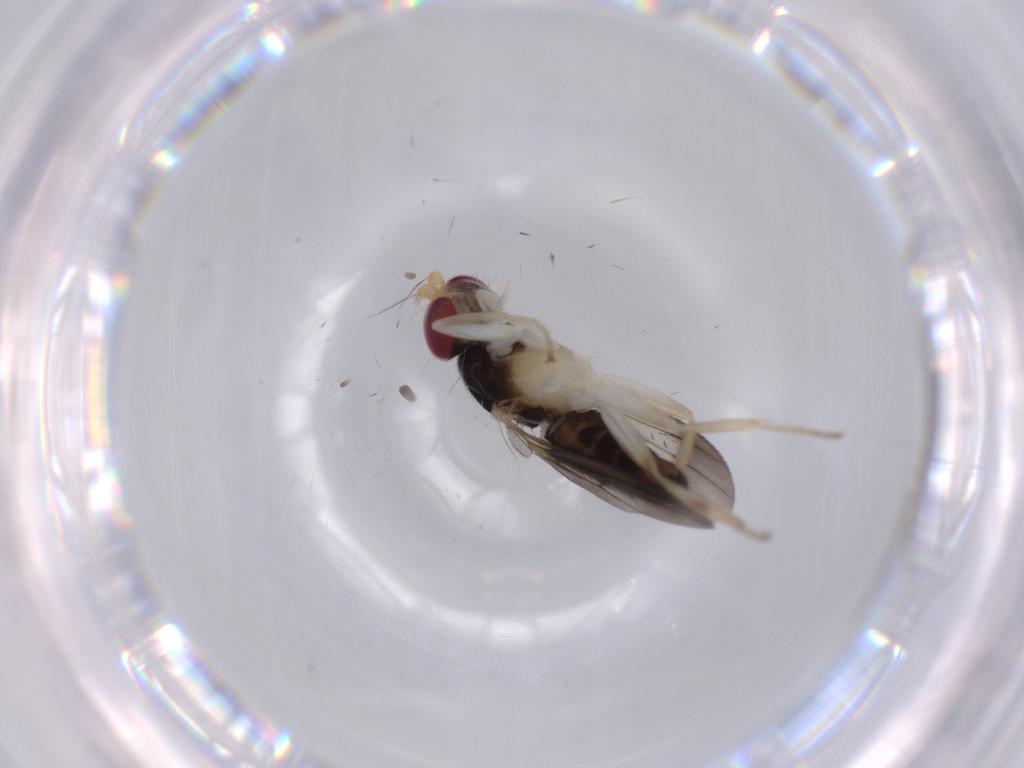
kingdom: Animalia
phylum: Arthropoda
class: Insecta
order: Diptera
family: Clusiidae
